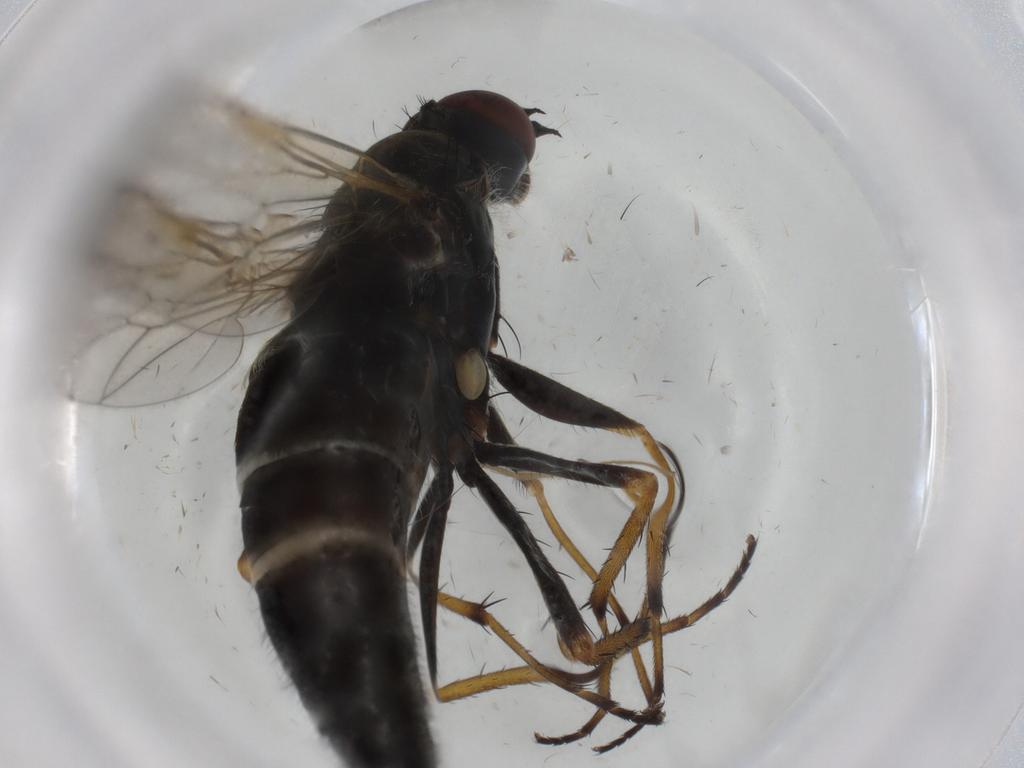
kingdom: Animalia
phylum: Arthropoda
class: Insecta
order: Diptera
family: Therevidae
